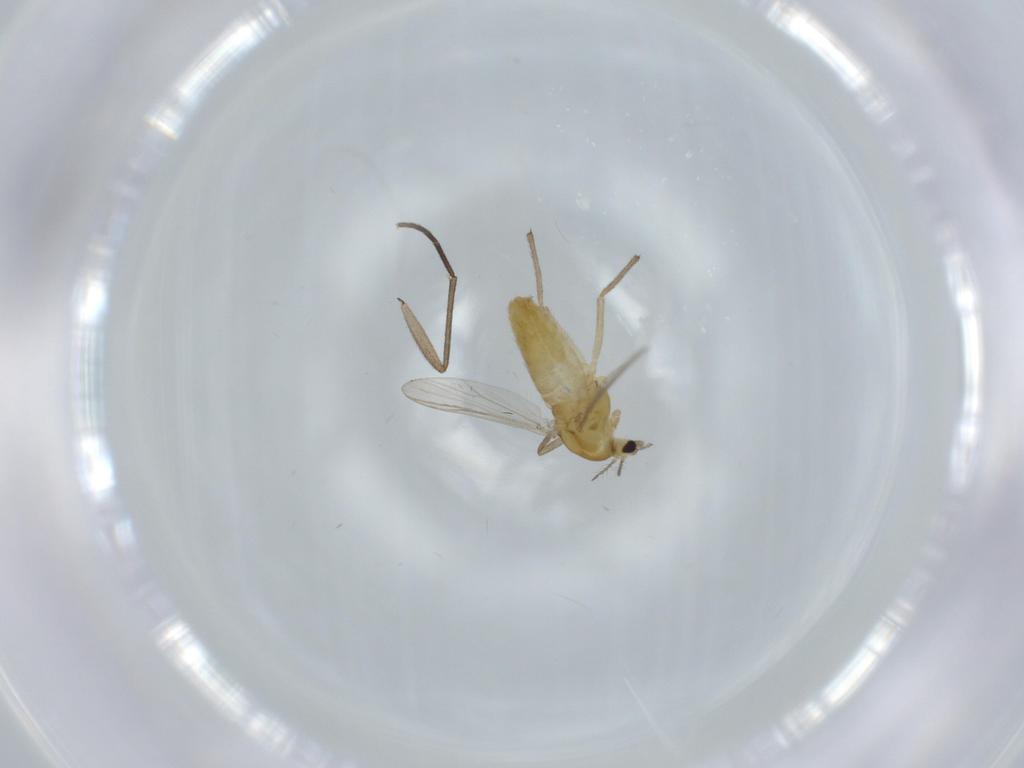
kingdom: Animalia
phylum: Arthropoda
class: Insecta
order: Diptera
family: Chironomidae
